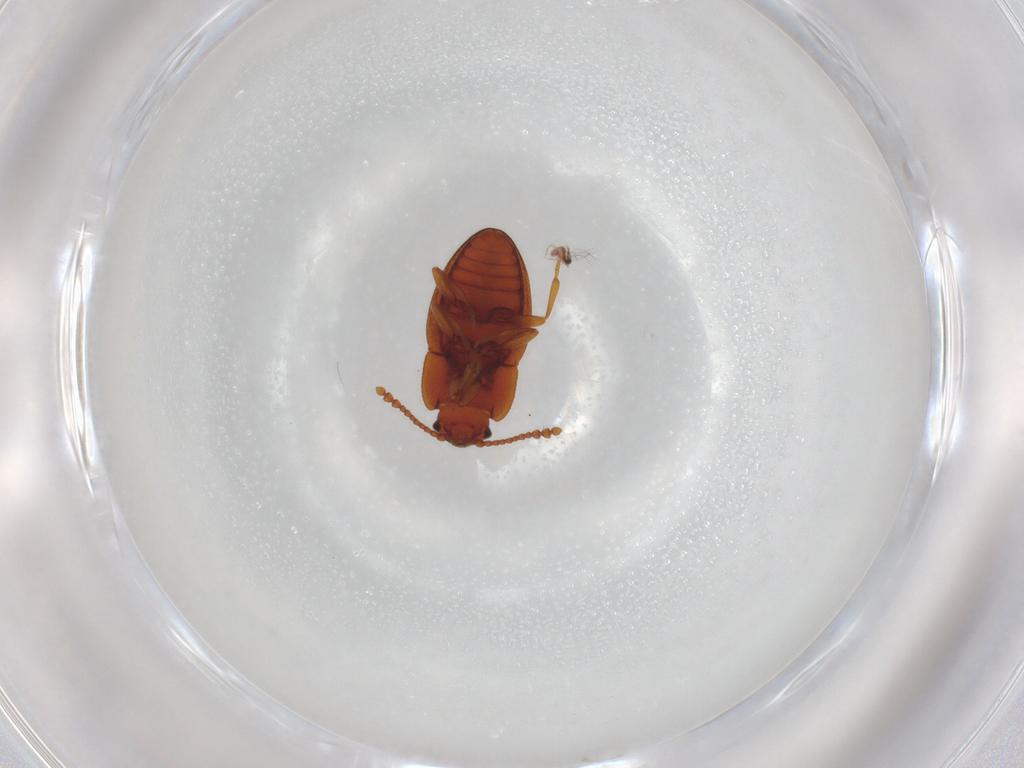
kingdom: Animalia
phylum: Arthropoda
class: Insecta
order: Coleoptera
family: Erotylidae
